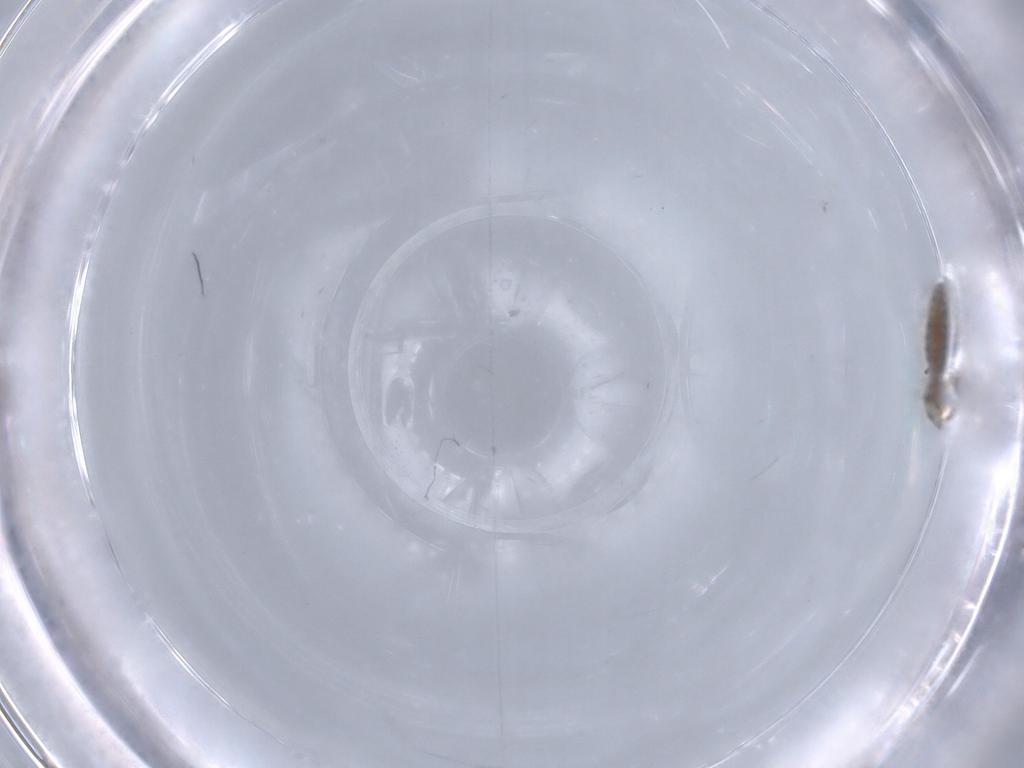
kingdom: Animalia
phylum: Arthropoda
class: Insecta
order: Diptera
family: Chironomidae
